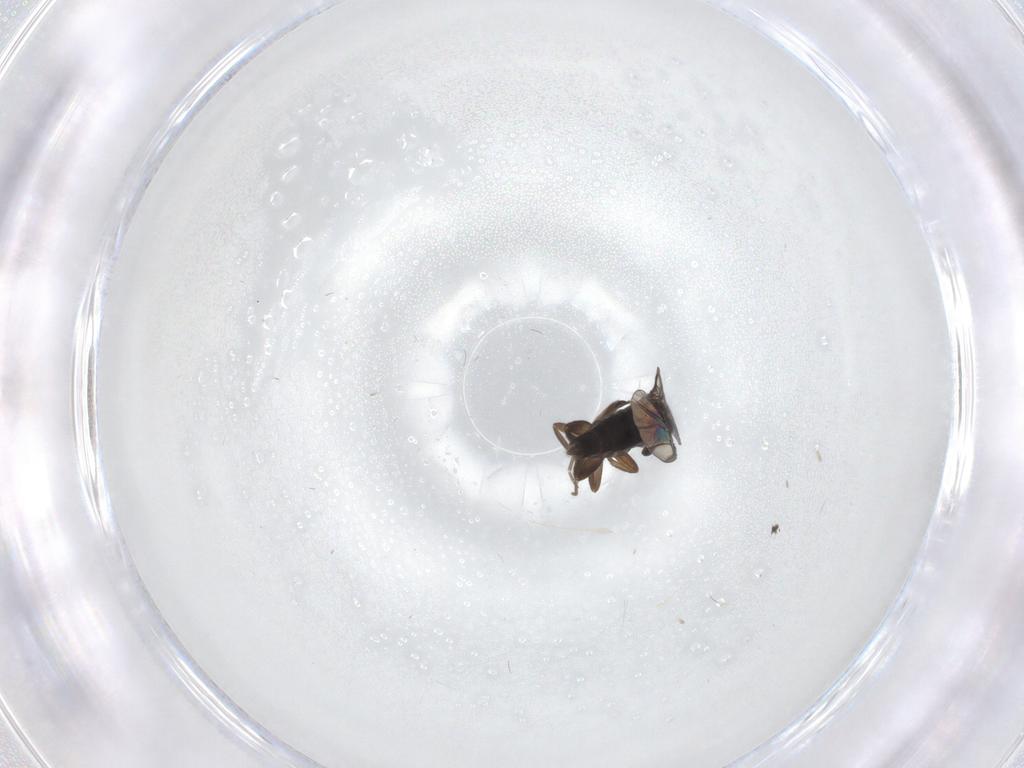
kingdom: Animalia
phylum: Arthropoda
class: Insecta
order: Diptera
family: Phoridae
